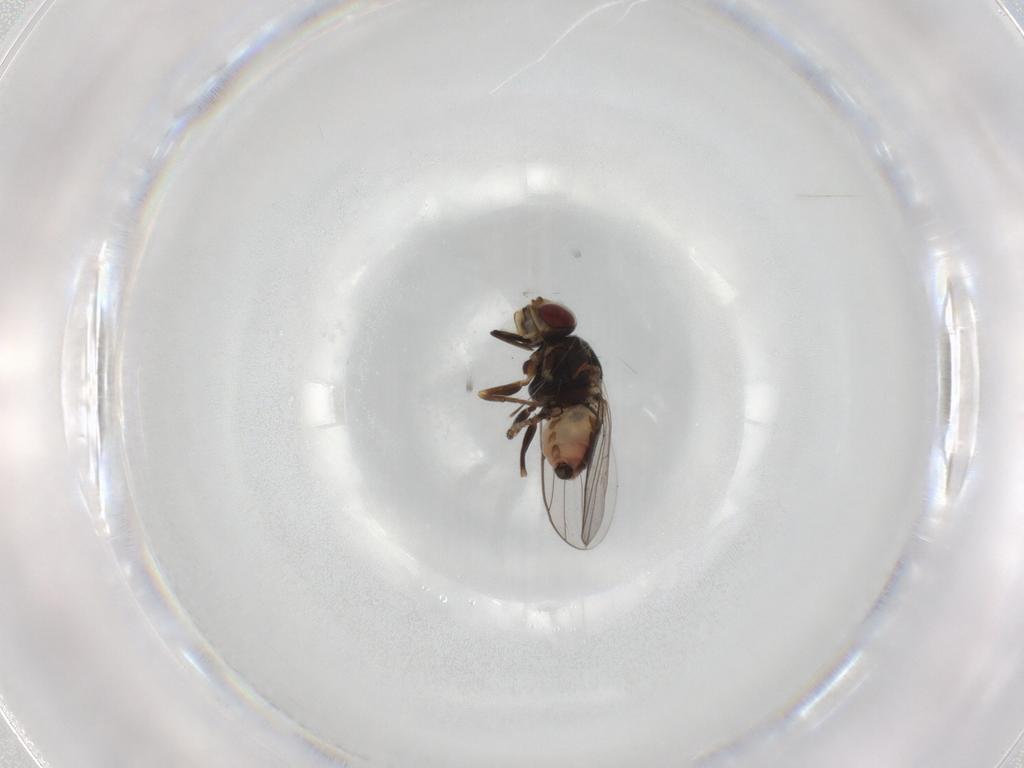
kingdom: Animalia
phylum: Arthropoda
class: Insecta
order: Diptera
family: Chloropidae
